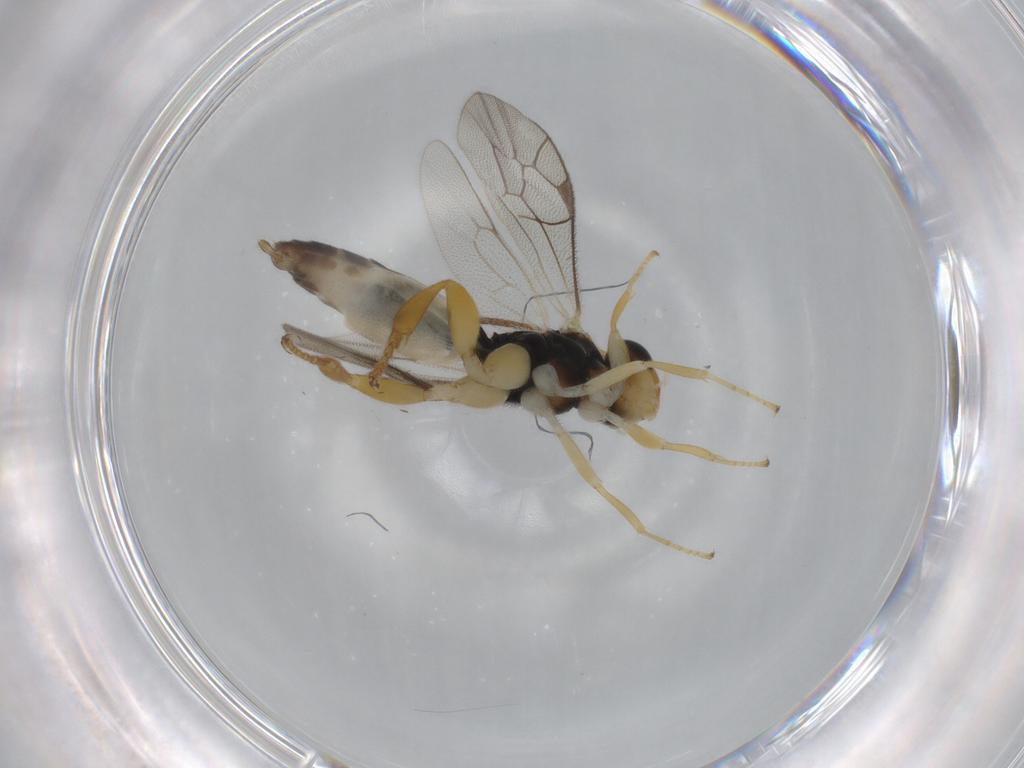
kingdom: Animalia
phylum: Arthropoda
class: Insecta
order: Hymenoptera
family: Ichneumonidae
